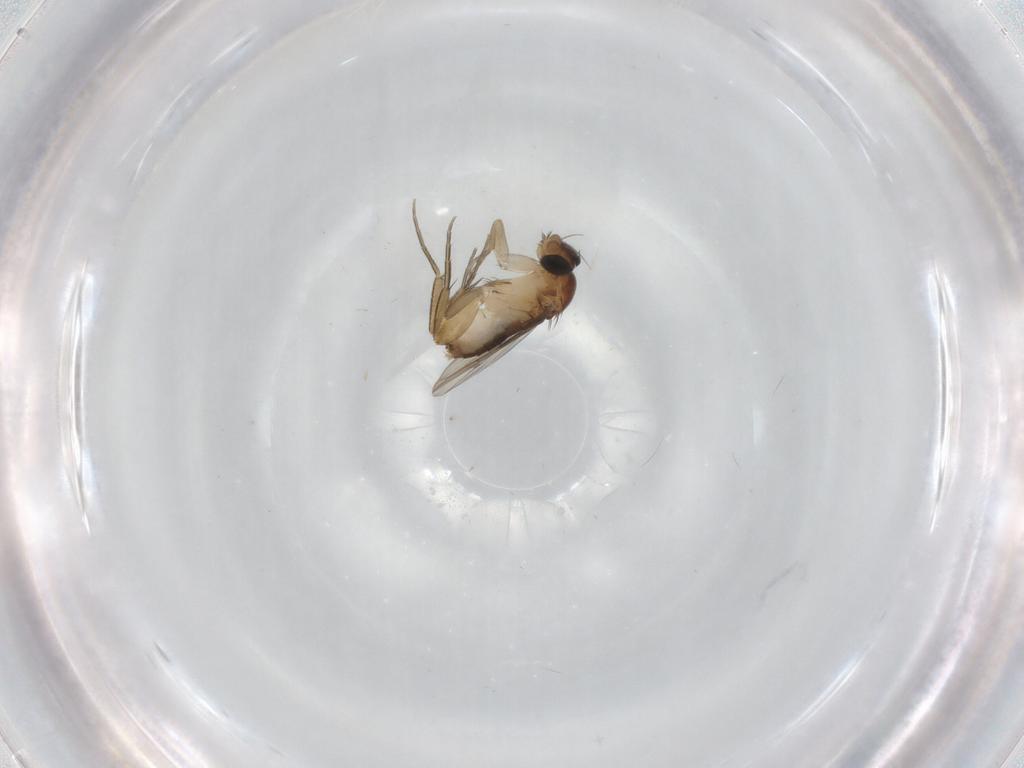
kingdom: Animalia
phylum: Arthropoda
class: Insecta
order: Diptera
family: Phoridae
